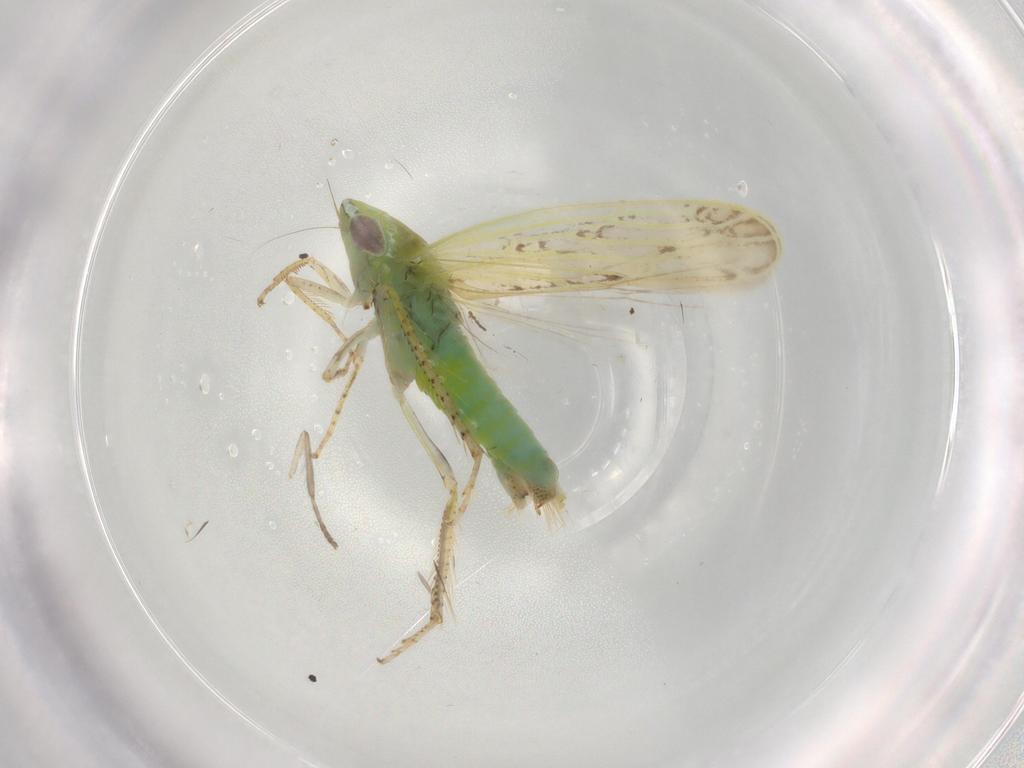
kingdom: Animalia
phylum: Arthropoda
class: Insecta
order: Hemiptera
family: Cicadellidae
